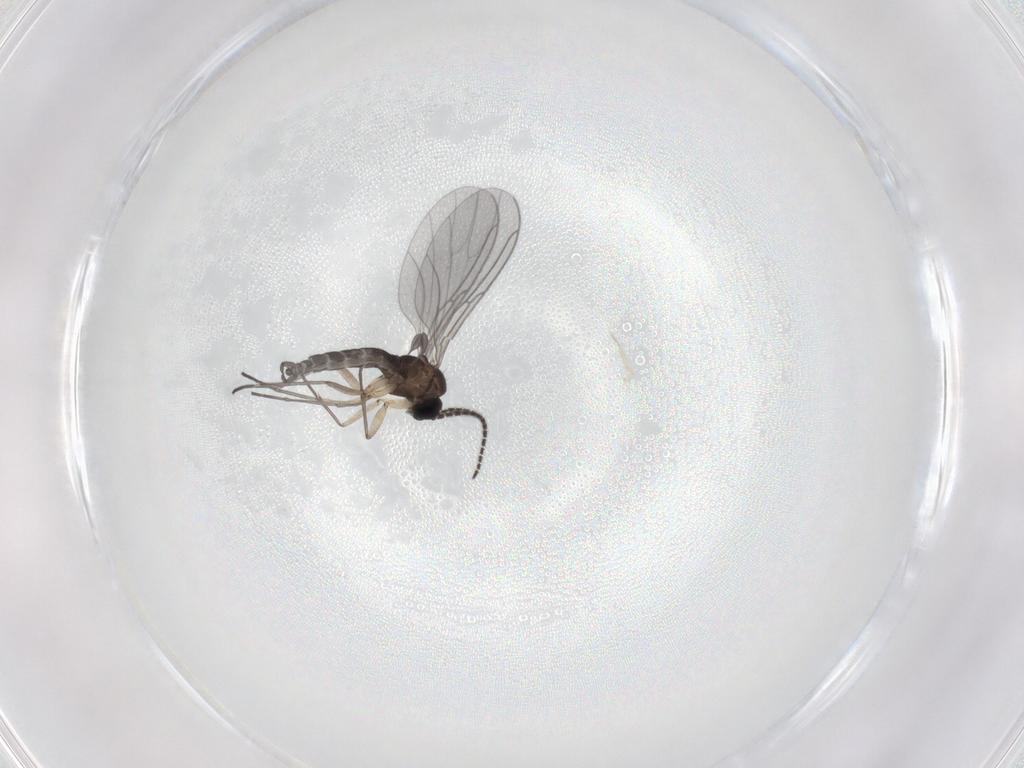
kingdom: Animalia
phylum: Arthropoda
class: Insecta
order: Diptera
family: Sciaridae
